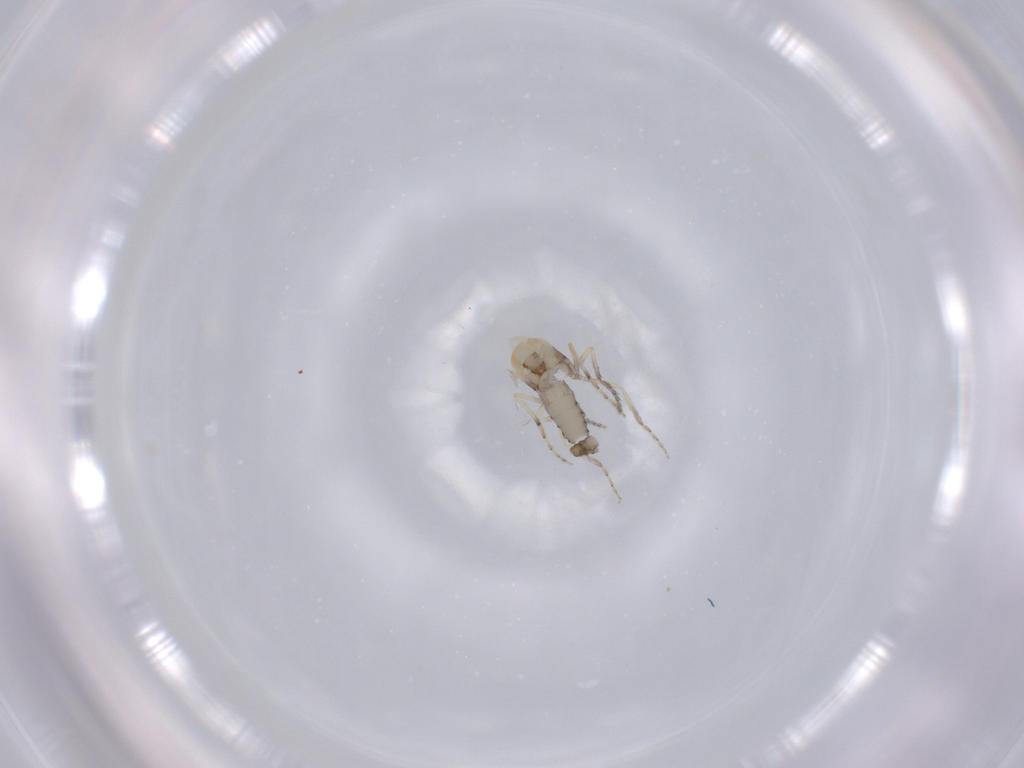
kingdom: Animalia
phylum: Arthropoda
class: Insecta
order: Diptera
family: Ceratopogonidae
